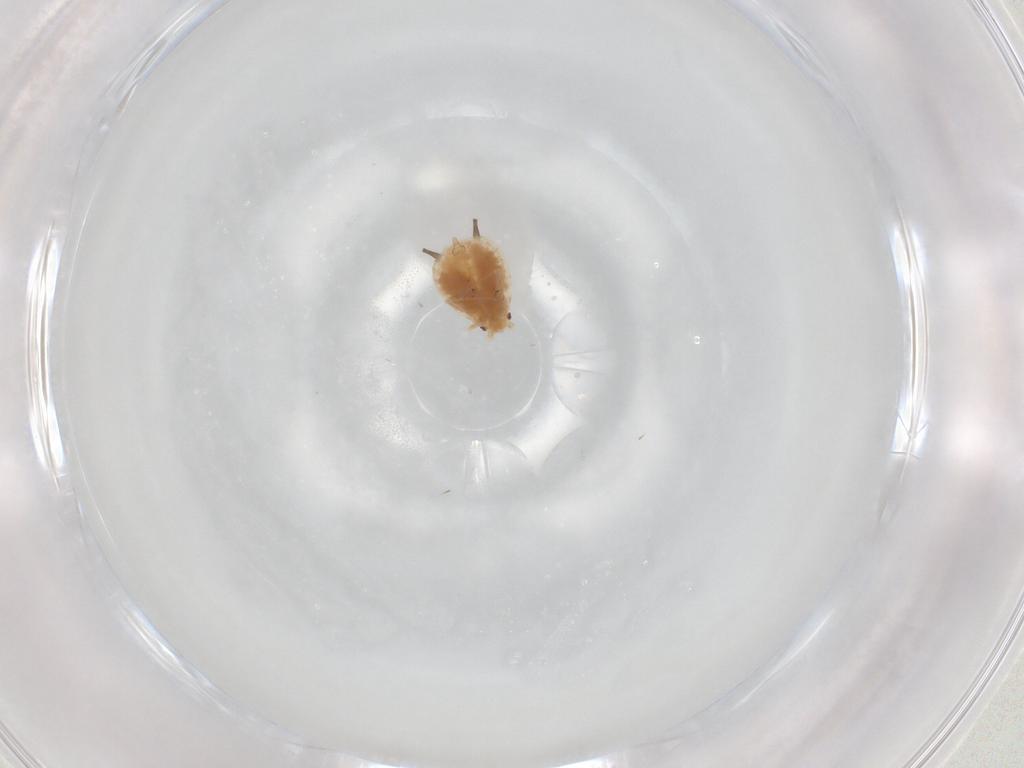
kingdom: Animalia
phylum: Arthropoda
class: Insecta
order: Hemiptera
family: Aphididae
